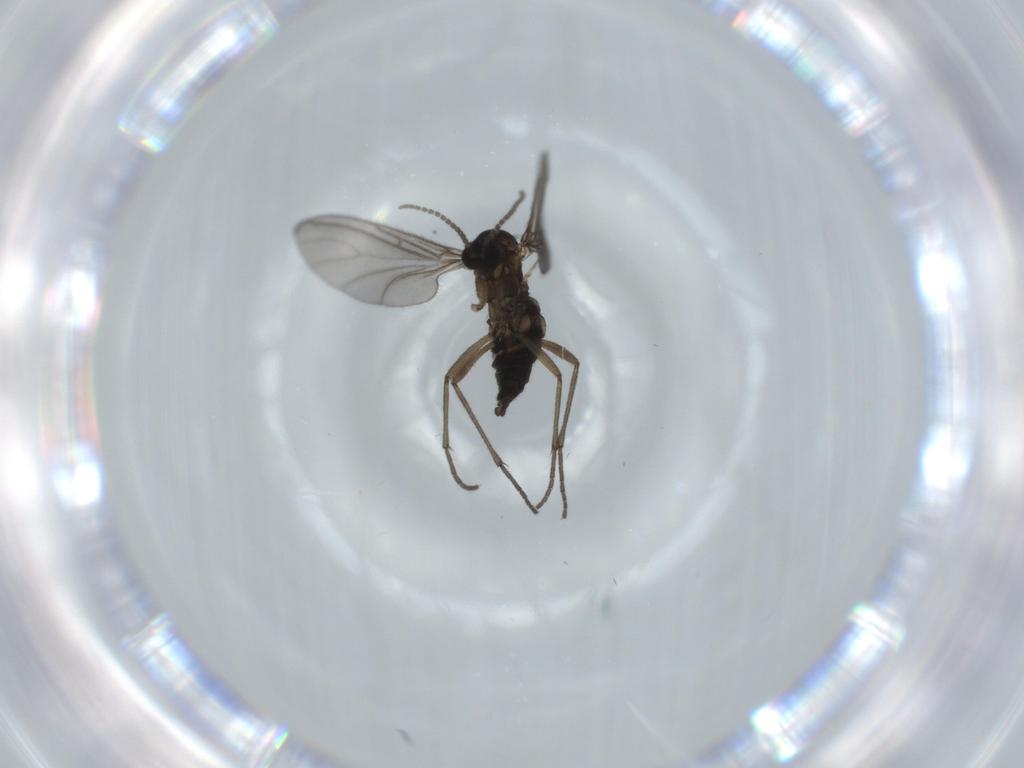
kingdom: Animalia
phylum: Arthropoda
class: Insecta
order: Diptera
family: Sciaridae
